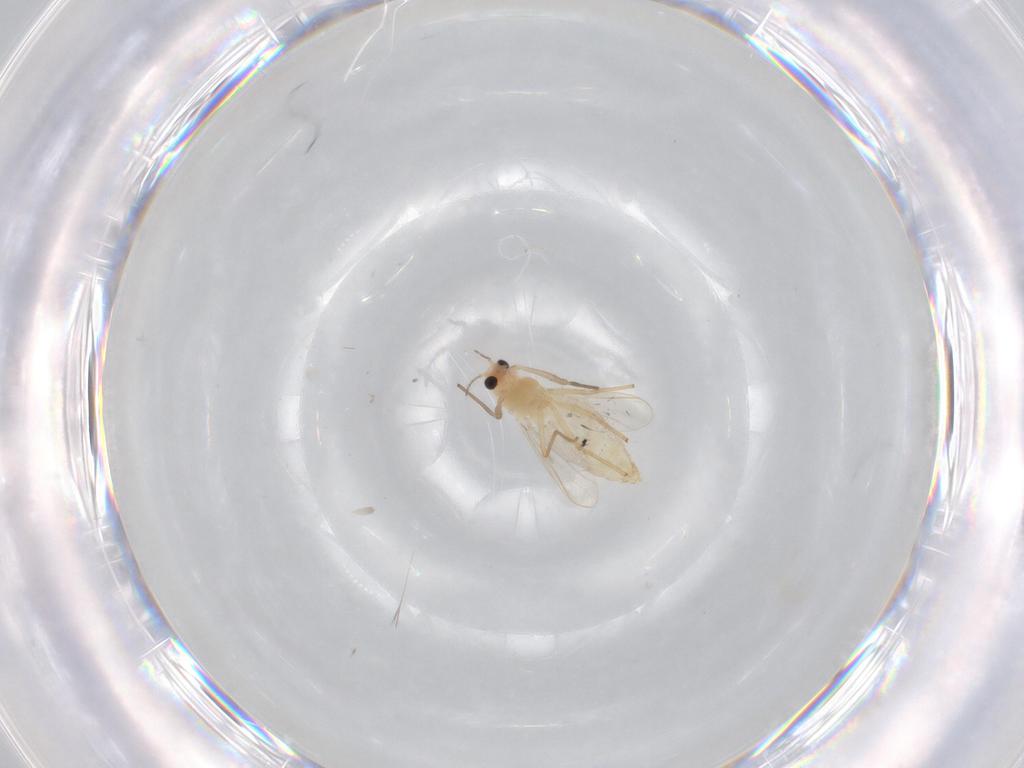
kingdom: Animalia
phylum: Arthropoda
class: Insecta
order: Diptera
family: Chironomidae
